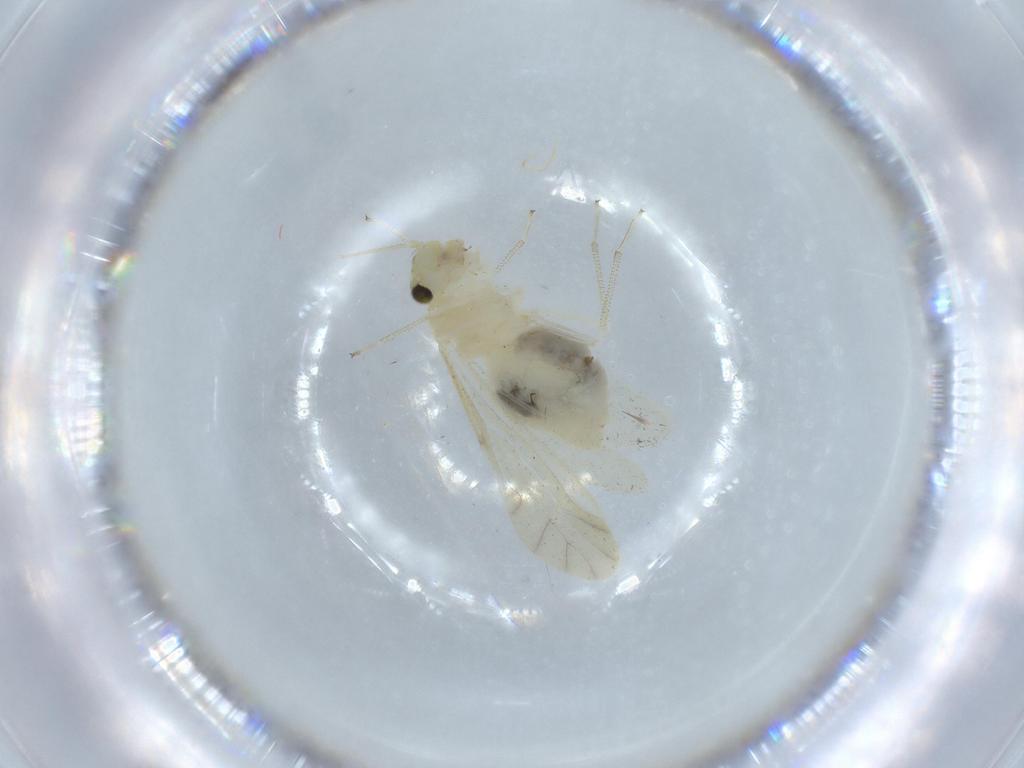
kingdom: Animalia
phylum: Arthropoda
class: Insecta
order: Psocodea
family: Caeciliusidae
